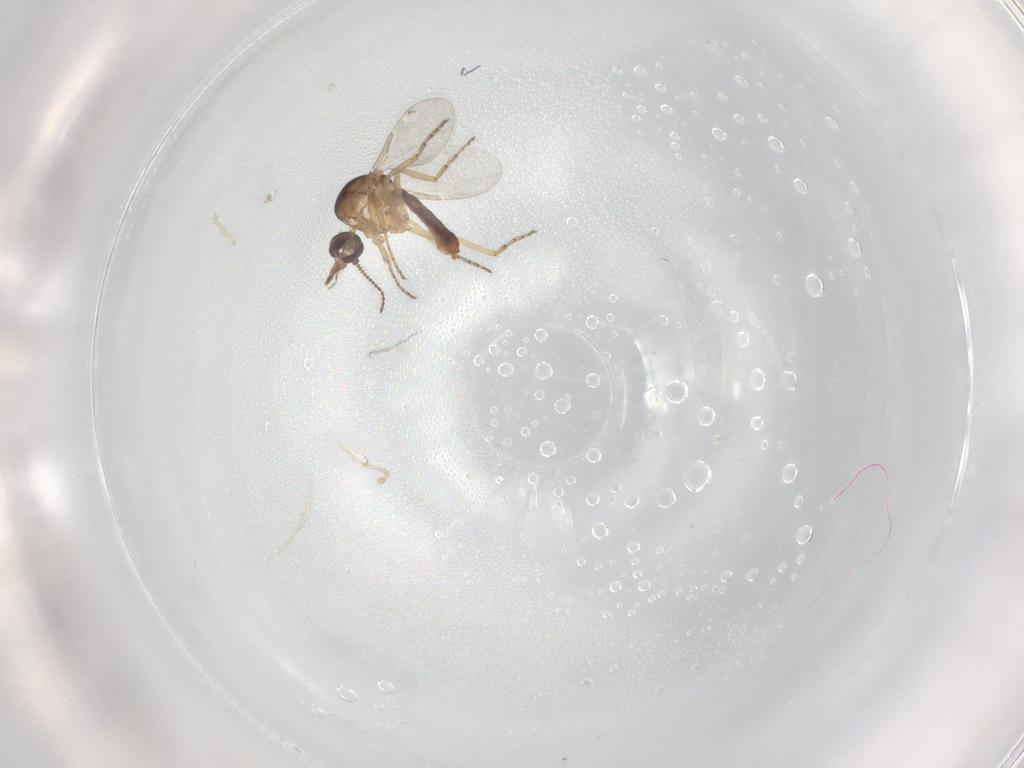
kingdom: Animalia
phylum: Arthropoda
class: Insecta
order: Diptera
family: Ceratopogonidae
